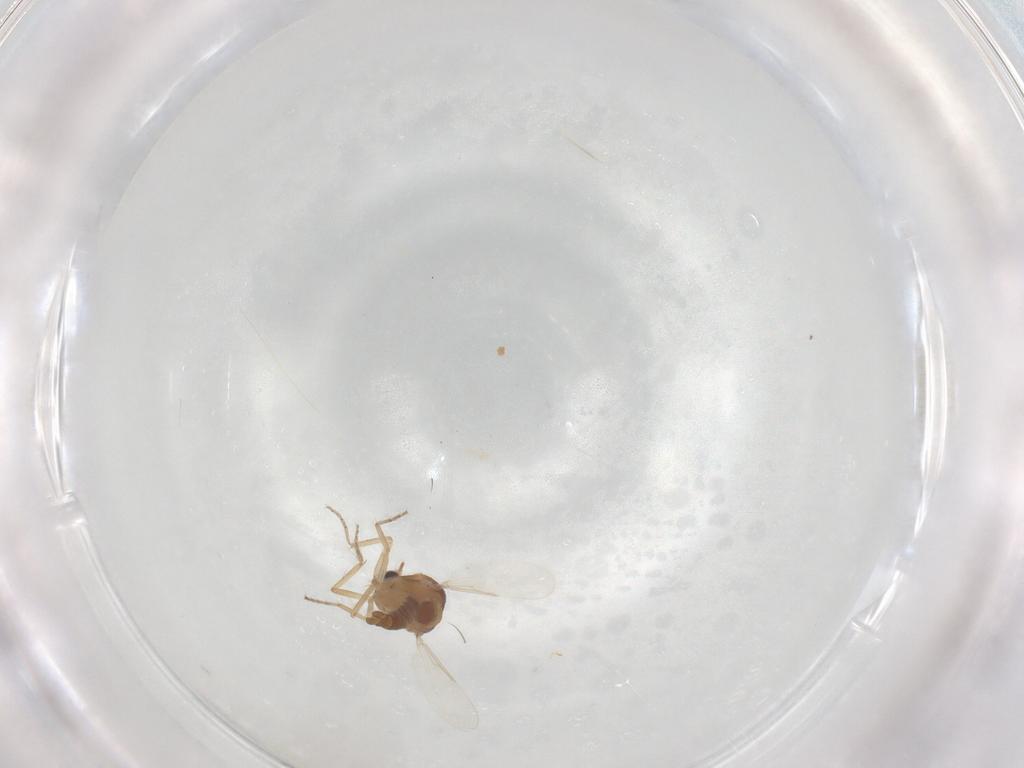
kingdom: Animalia
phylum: Arthropoda
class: Insecta
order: Diptera
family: Ceratopogonidae
